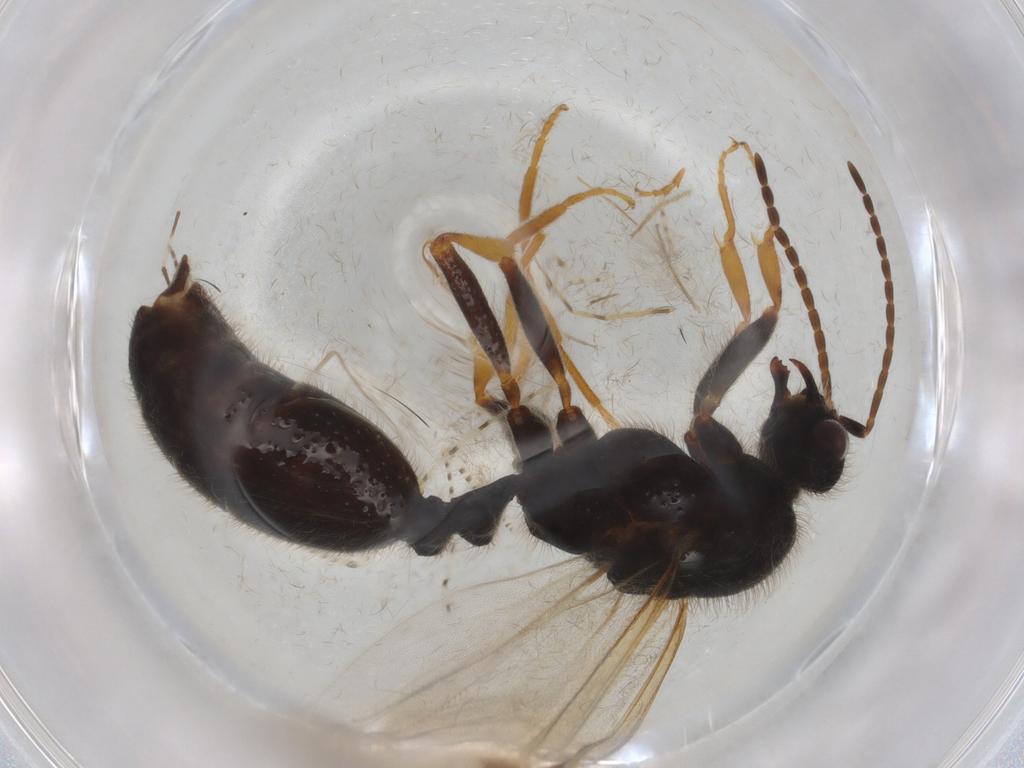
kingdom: Animalia
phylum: Arthropoda
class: Insecta
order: Hymenoptera
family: Formicidae
